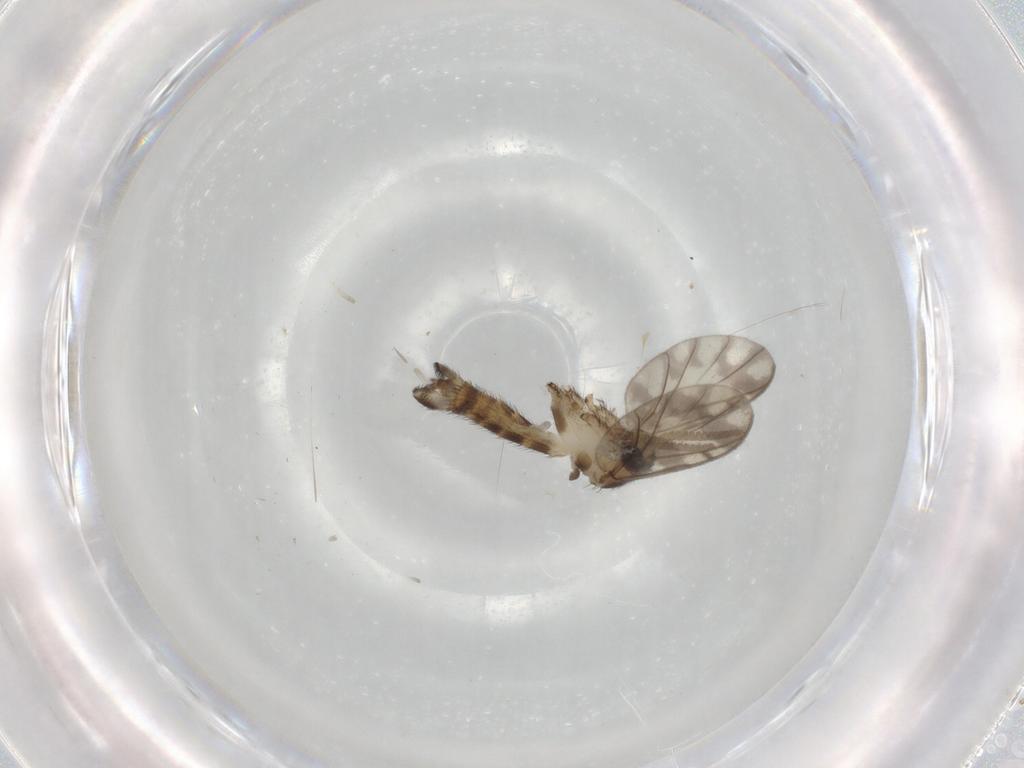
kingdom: Animalia
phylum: Arthropoda
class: Insecta
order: Diptera
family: Keroplatidae
